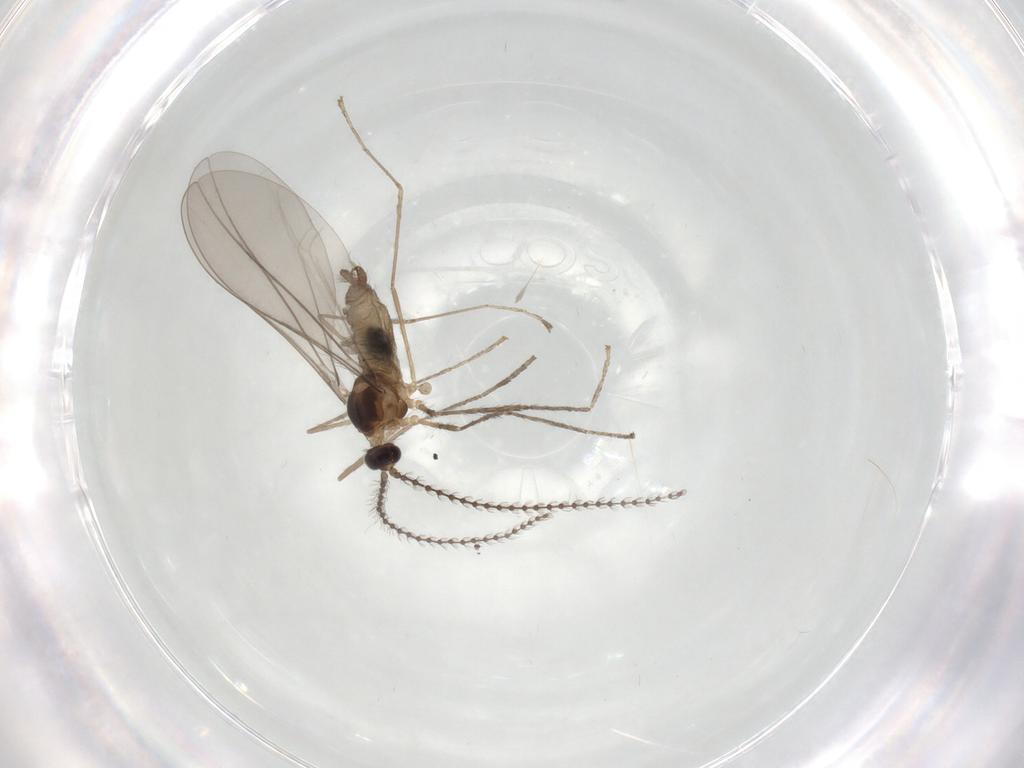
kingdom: Animalia
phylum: Arthropoda
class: Insecta
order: Diptera
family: Cecidomyiidae
